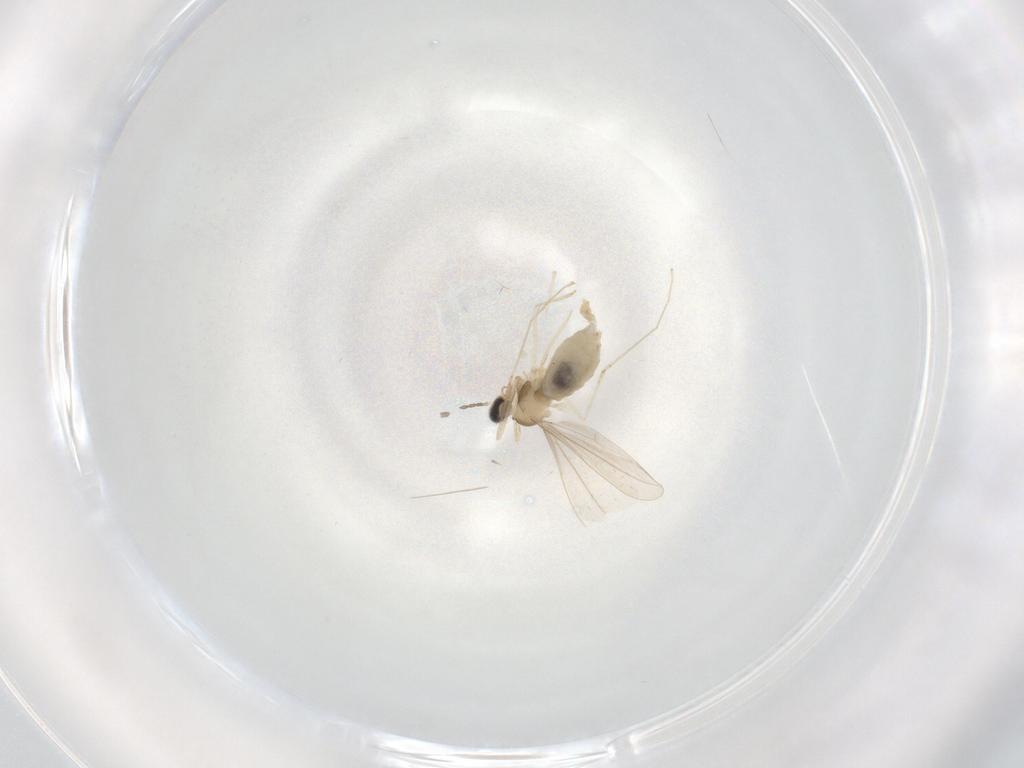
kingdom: Animalia
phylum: Arthropoda
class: Insecta
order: Diptera
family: Cecidomyiidae
